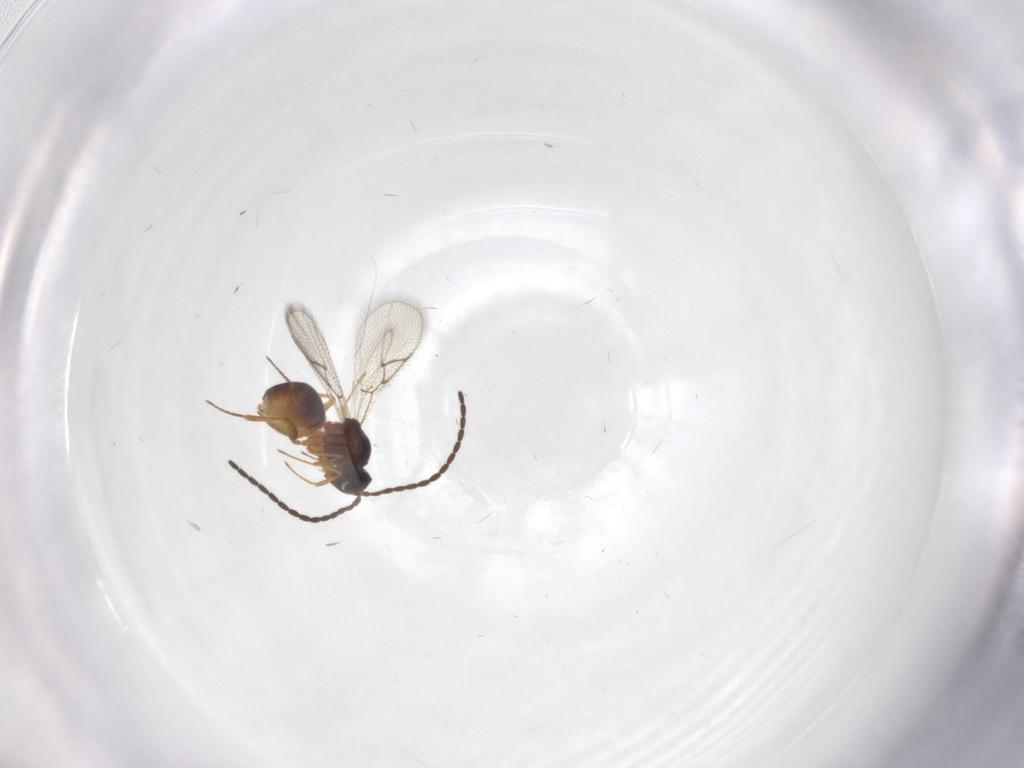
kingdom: Animalia
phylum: Arthropoda
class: Insecta
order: Hymenoptera
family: Figitidae
